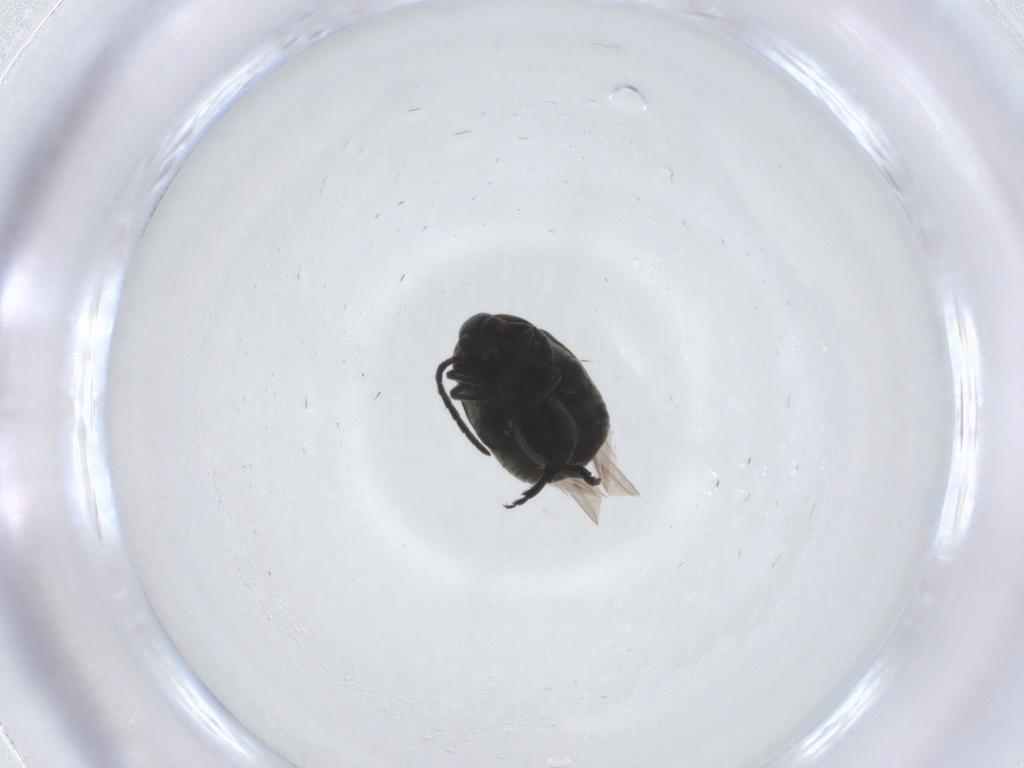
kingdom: Animalia
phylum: Arthropoda
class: Insecta
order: Coleoptera
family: Chrysomelidae
